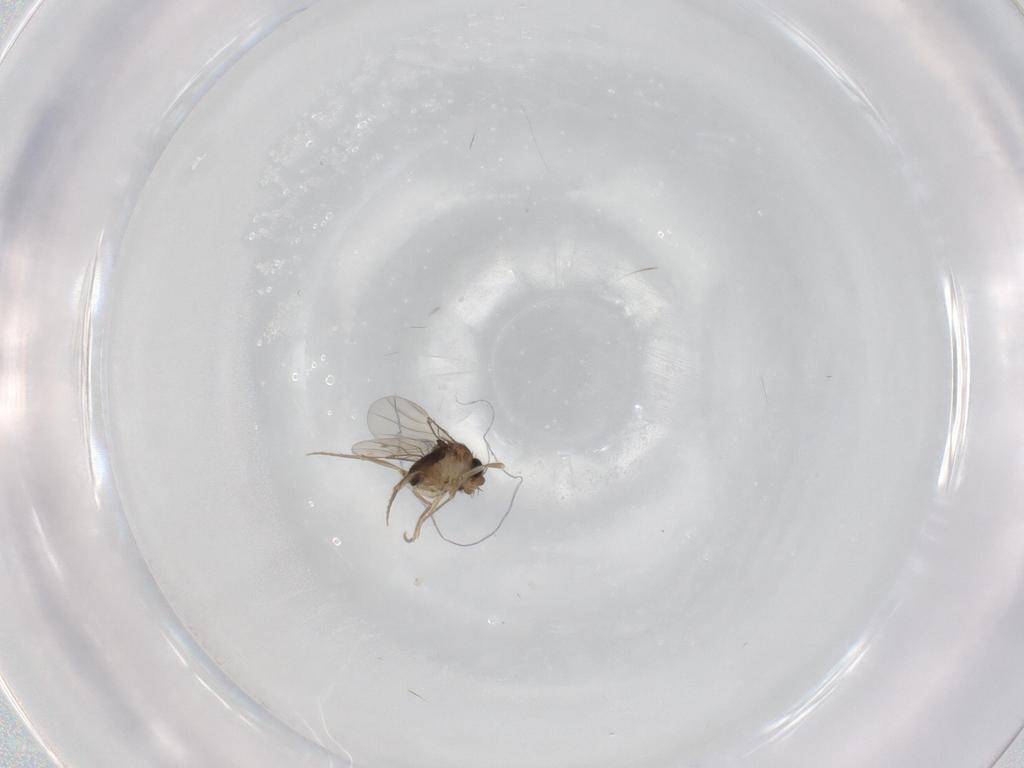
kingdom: Animalia
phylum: Arthropoda
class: Insecta
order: Diptera
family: Phoridae
